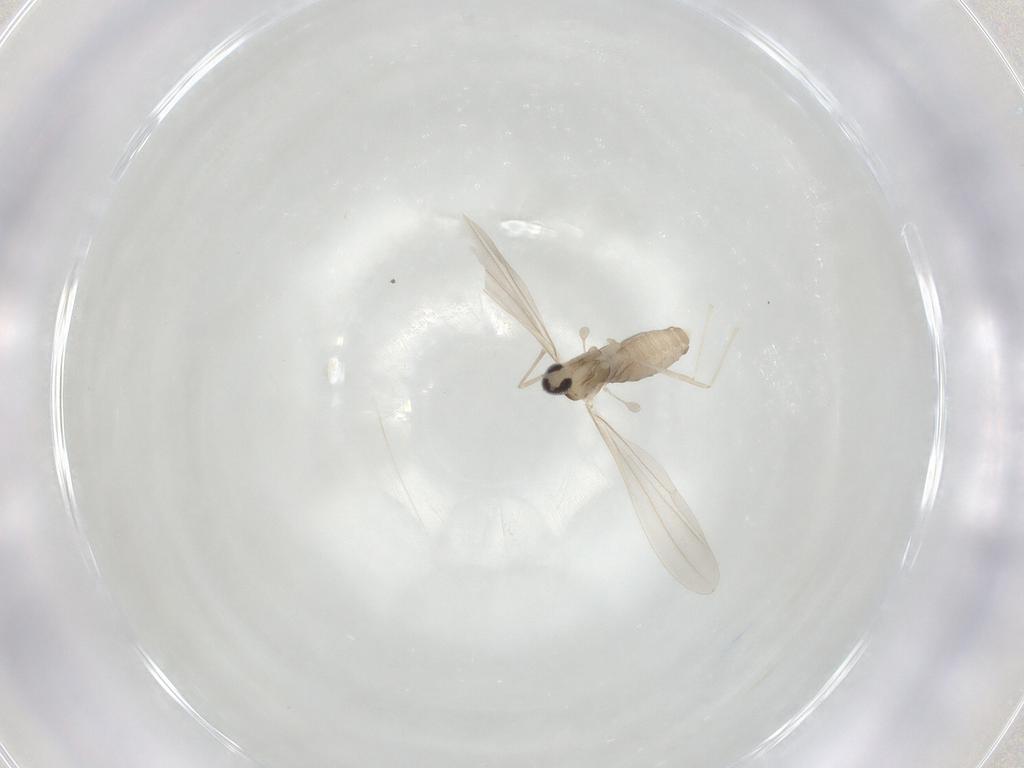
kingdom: Animalia
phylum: Arthropoda
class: Insecta
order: Diptera
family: Cecidomyiidae
